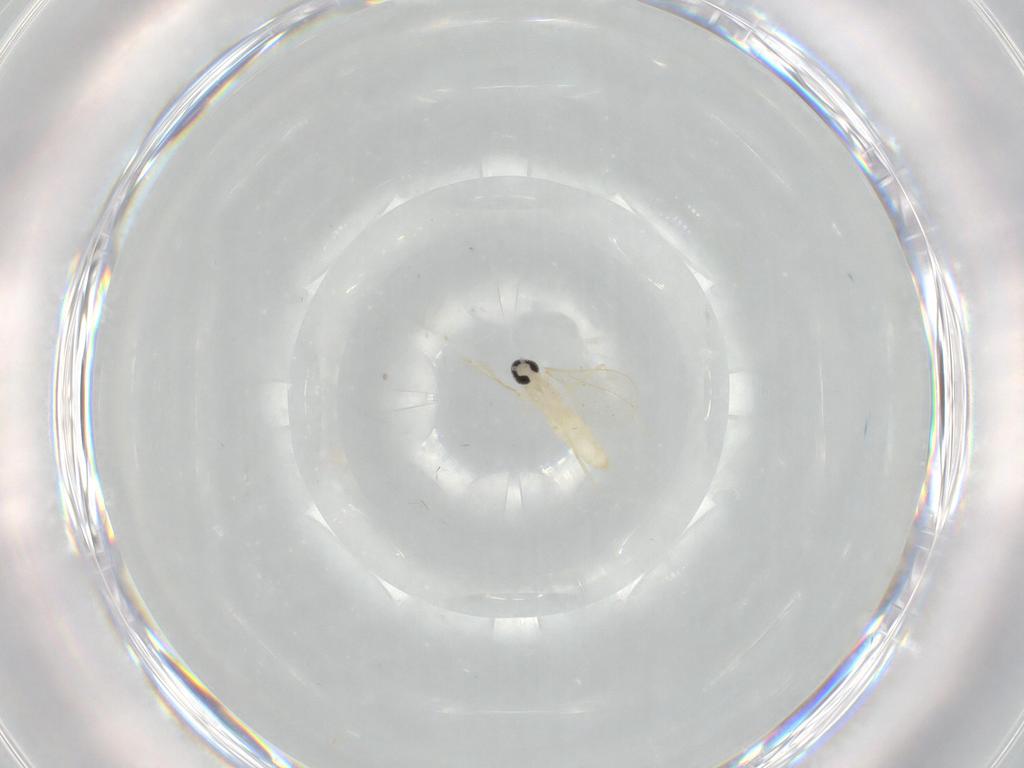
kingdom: Animalia
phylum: Arthropoda
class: Insecta
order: Diptera
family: Cecidomyiidae
